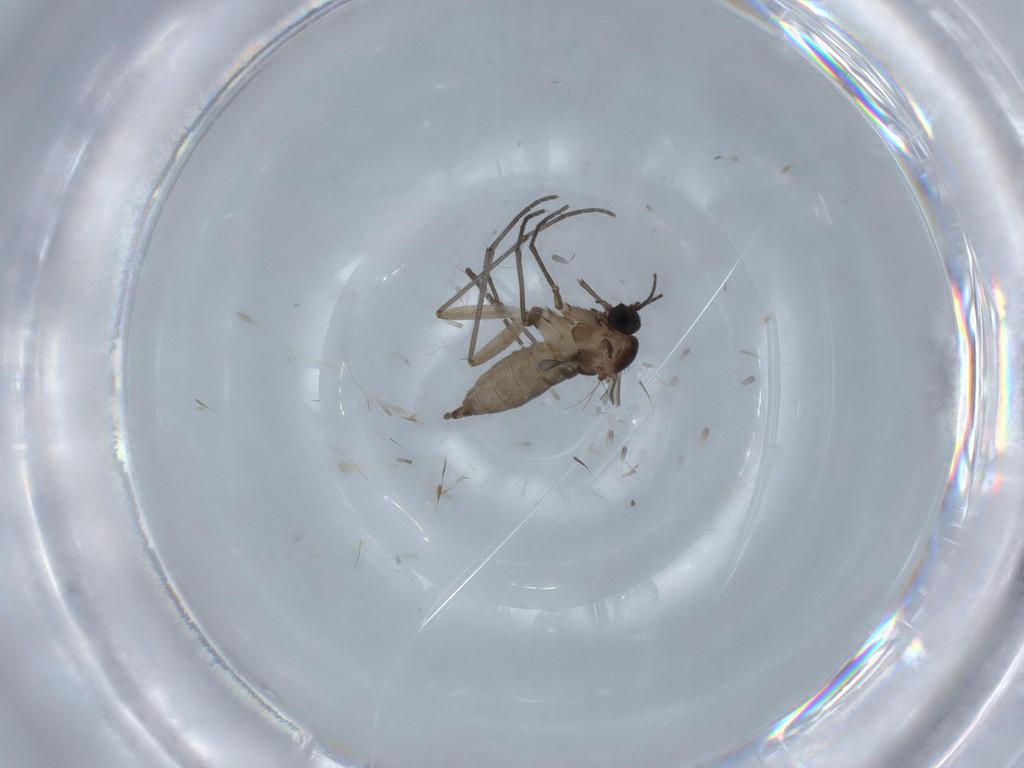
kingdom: Animalia
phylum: Arthropoda
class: Insecta
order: Diptera
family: Sciaridae
